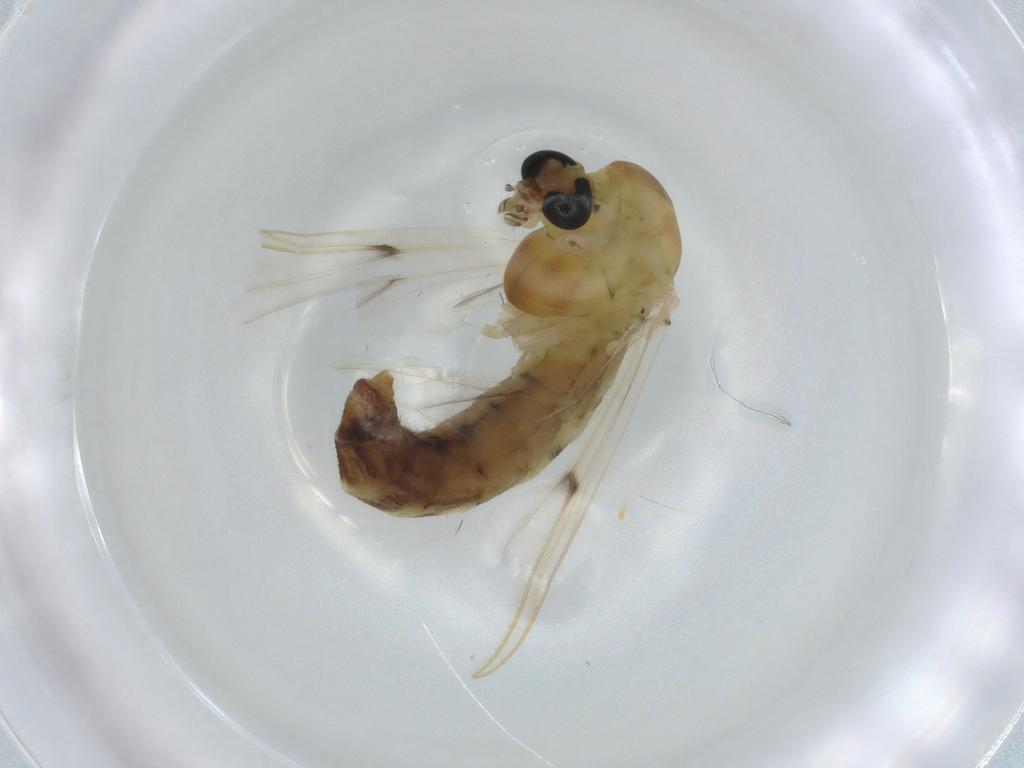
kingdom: Animalia
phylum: Arthropoda
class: Insecta
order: Diptera
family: Chironomidae
